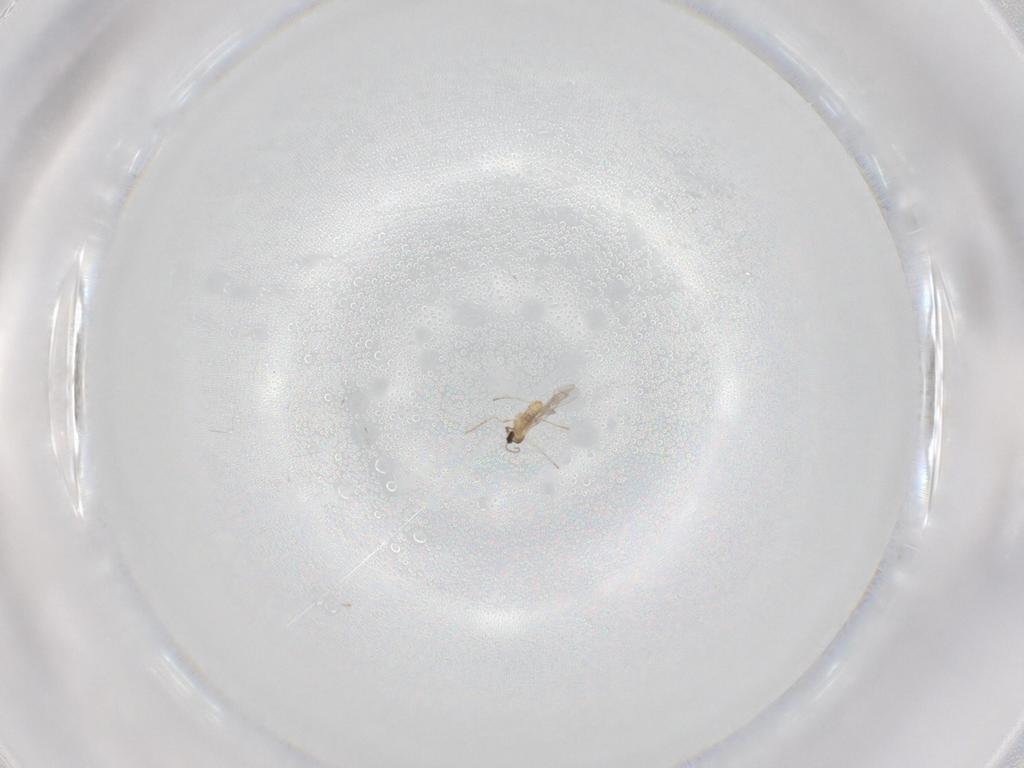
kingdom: Animalia
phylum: Arthropoda
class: Insecta
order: Diptera
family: Cecidomyiidae
